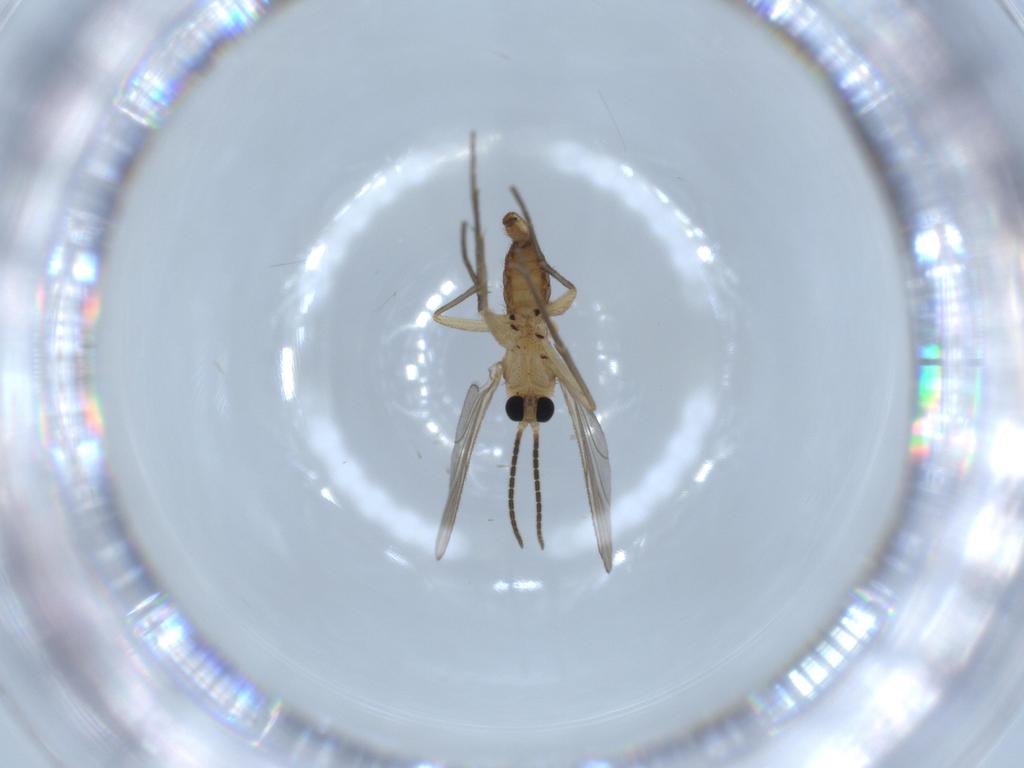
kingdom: Animalia
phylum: Arthropoda
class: Insecta
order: Diptera
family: Sciaridae
